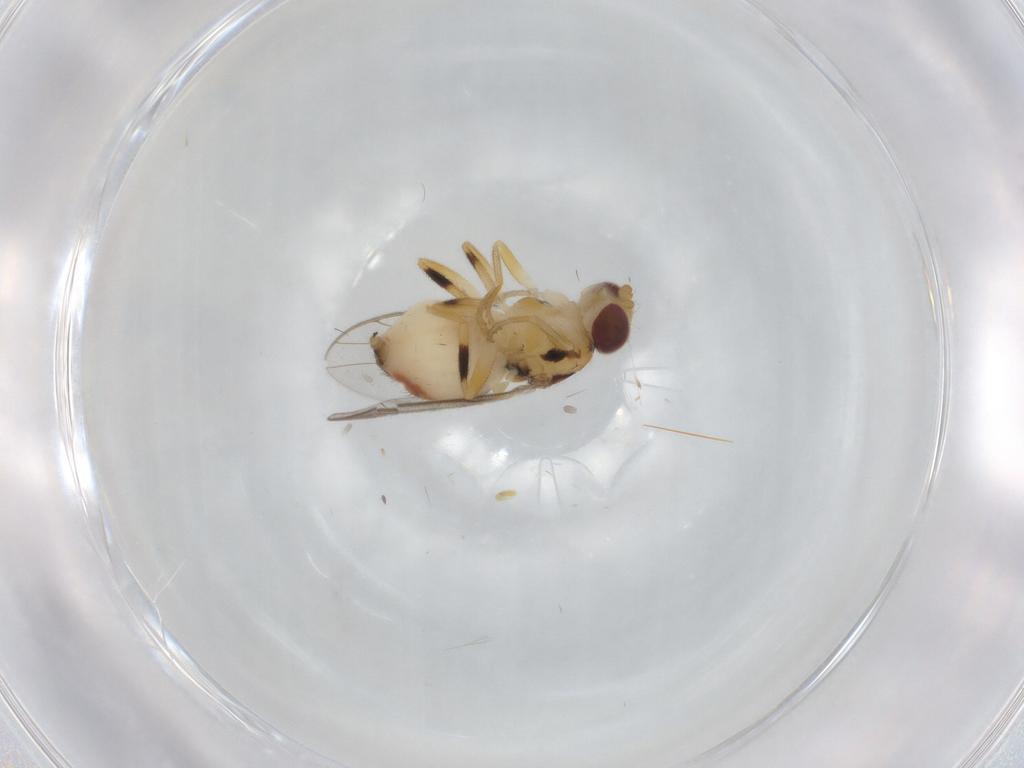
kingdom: Animalia
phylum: Arthropoda
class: Insecta
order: Diptera
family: Chloropidae
